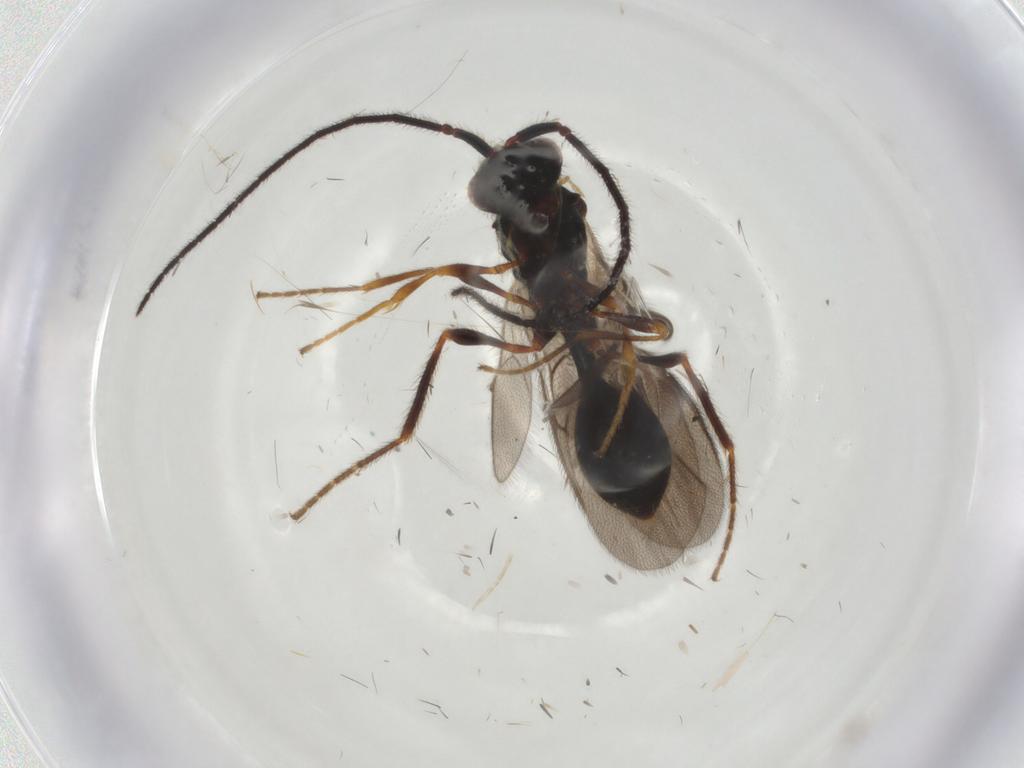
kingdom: Animalia
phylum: Arthropoda
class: Insecta
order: Hymenoptera
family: Diapriidae
